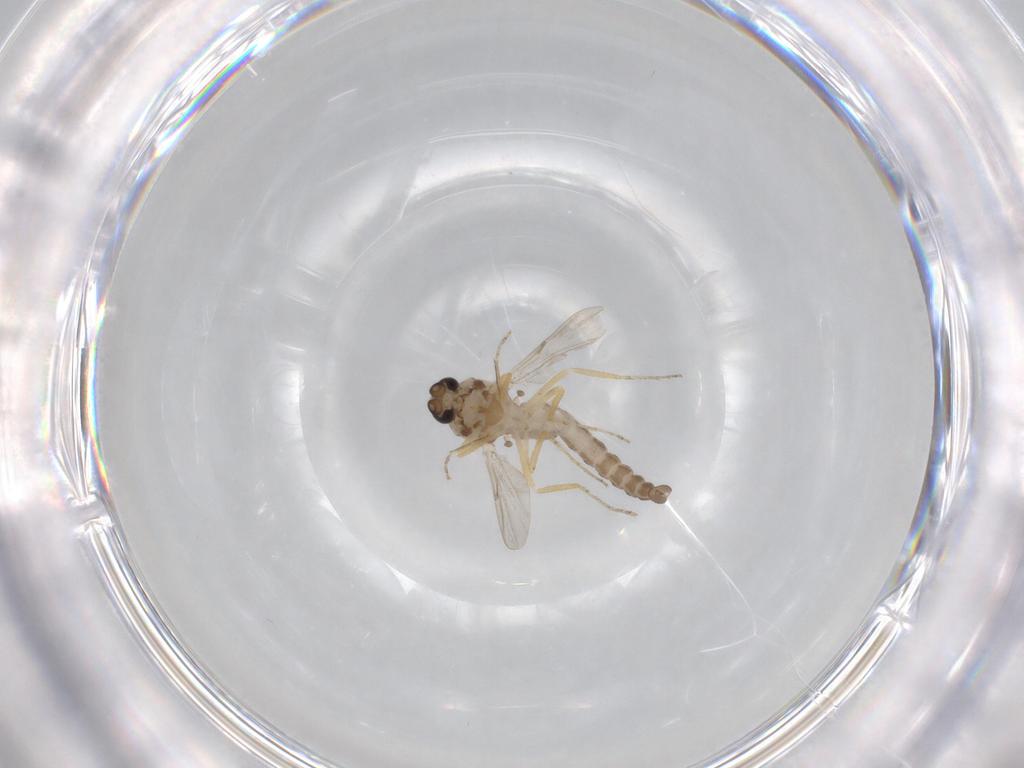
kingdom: Animalia
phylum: Arthropoda
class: Insecta
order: Diptera
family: Ceratopogonidae
